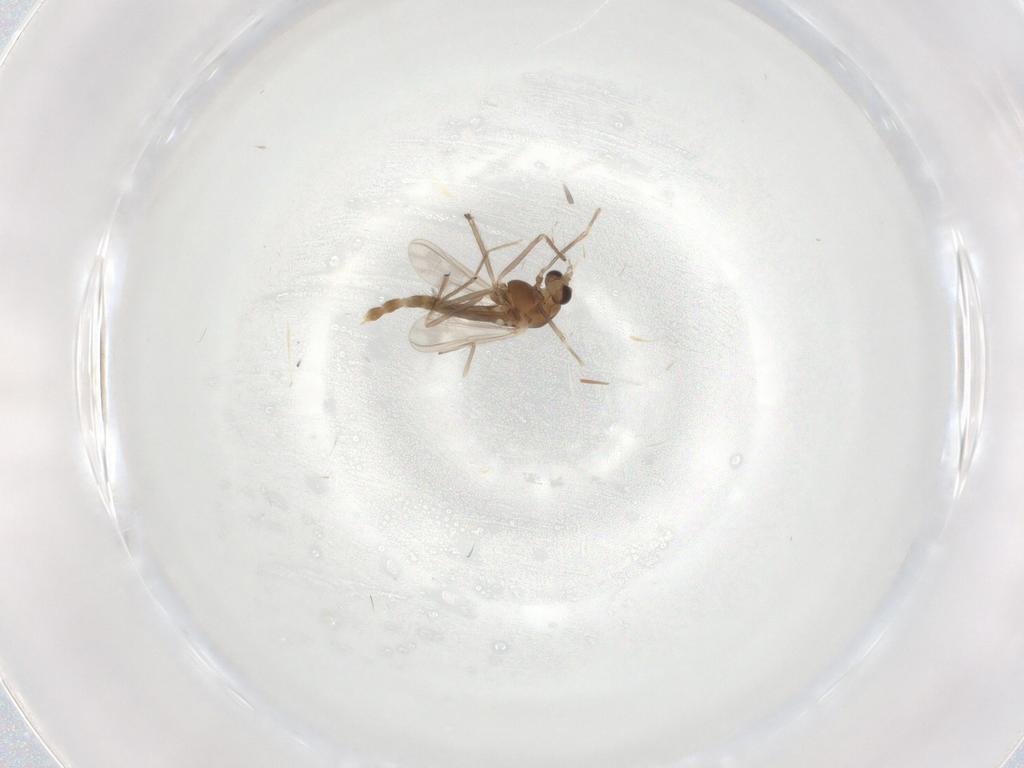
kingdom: Animalia
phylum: Arthropoda
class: Insecta
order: Diptera
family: Chironomidae
